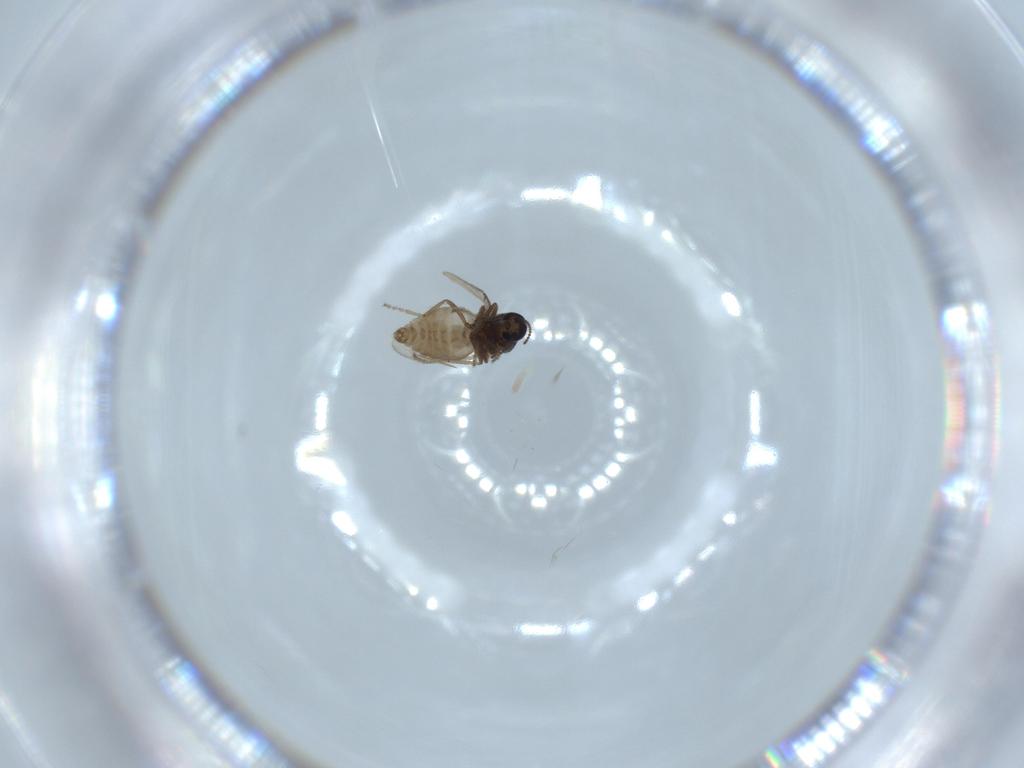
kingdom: Animalia
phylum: Arthropoda
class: Insecta
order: Diptera
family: Ceratopogonidae
